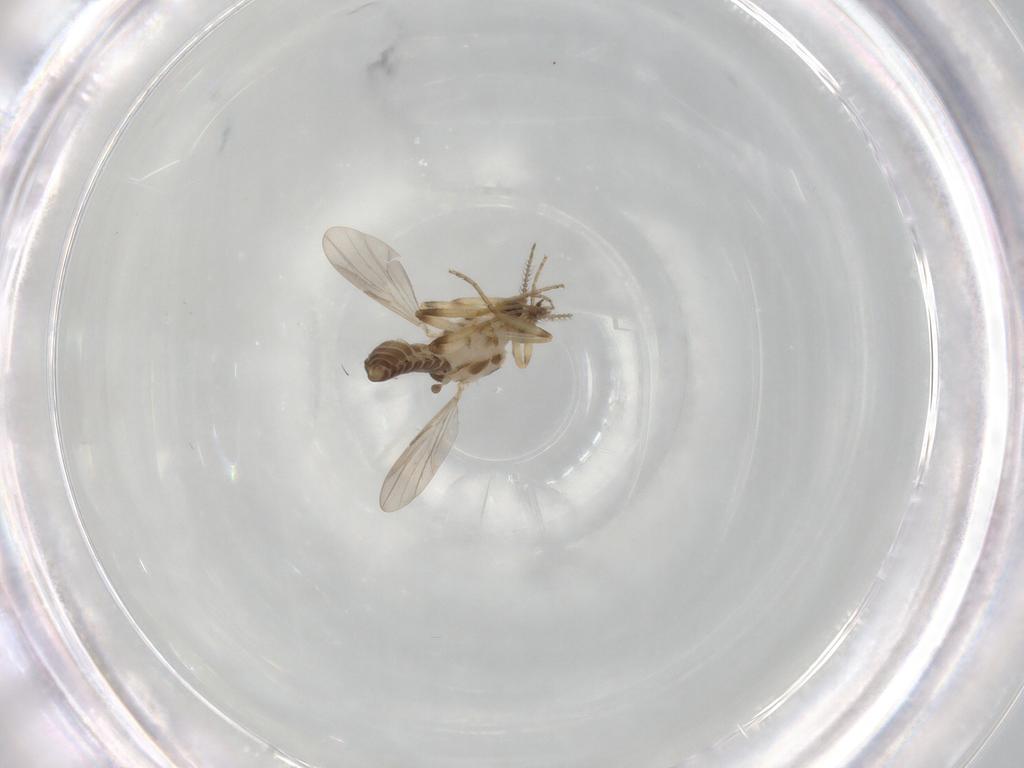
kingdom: Animalia
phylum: Arthropoda
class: Insecta
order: Diptera
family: Ceratopogonidae
